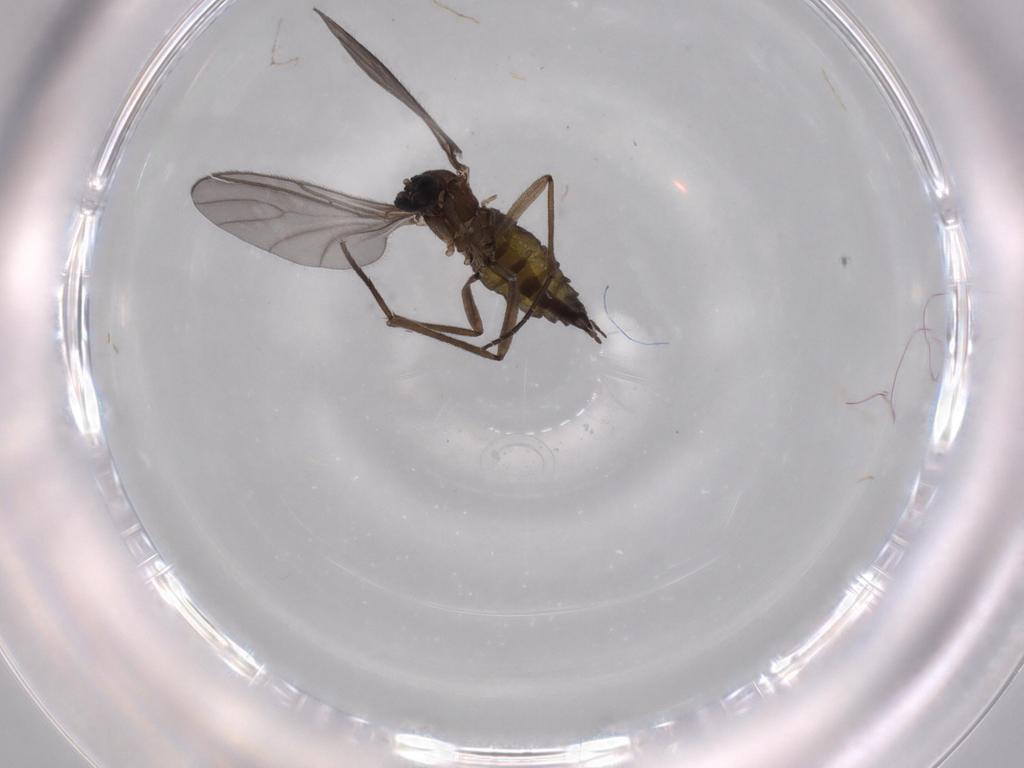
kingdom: Animalia
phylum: Arthropoda
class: Insecta
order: Diptera
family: Sciaridae
